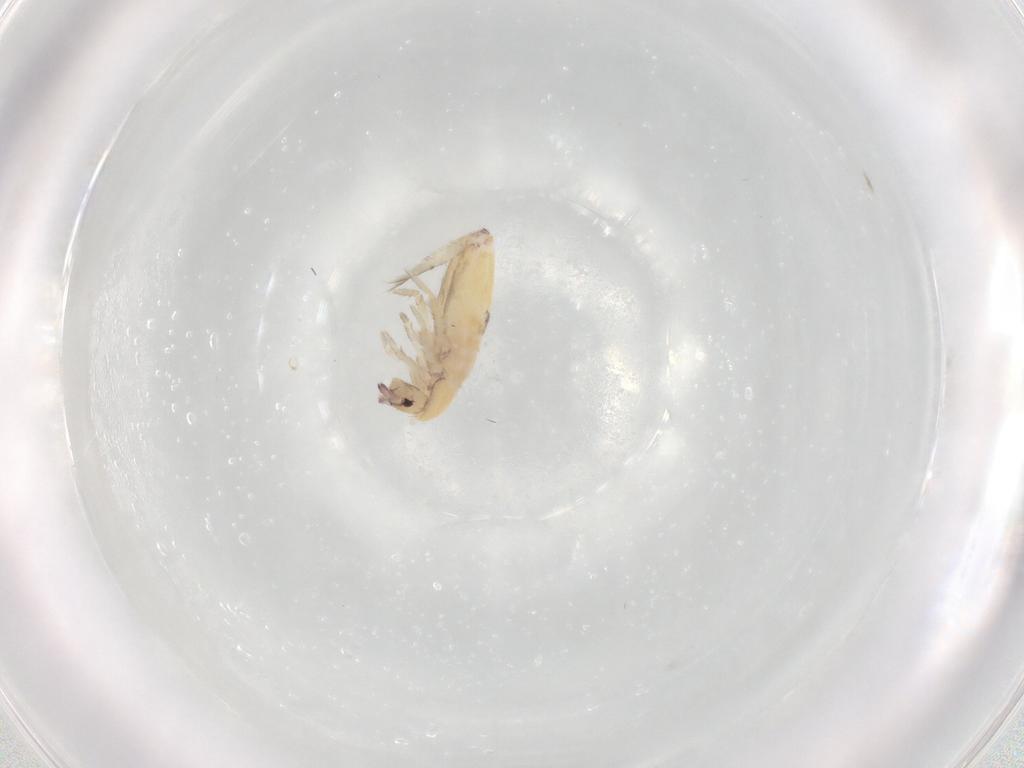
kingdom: Animalia
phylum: Arthropoda
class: Collembola
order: Entomobryomorpha
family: Entomobryidae
